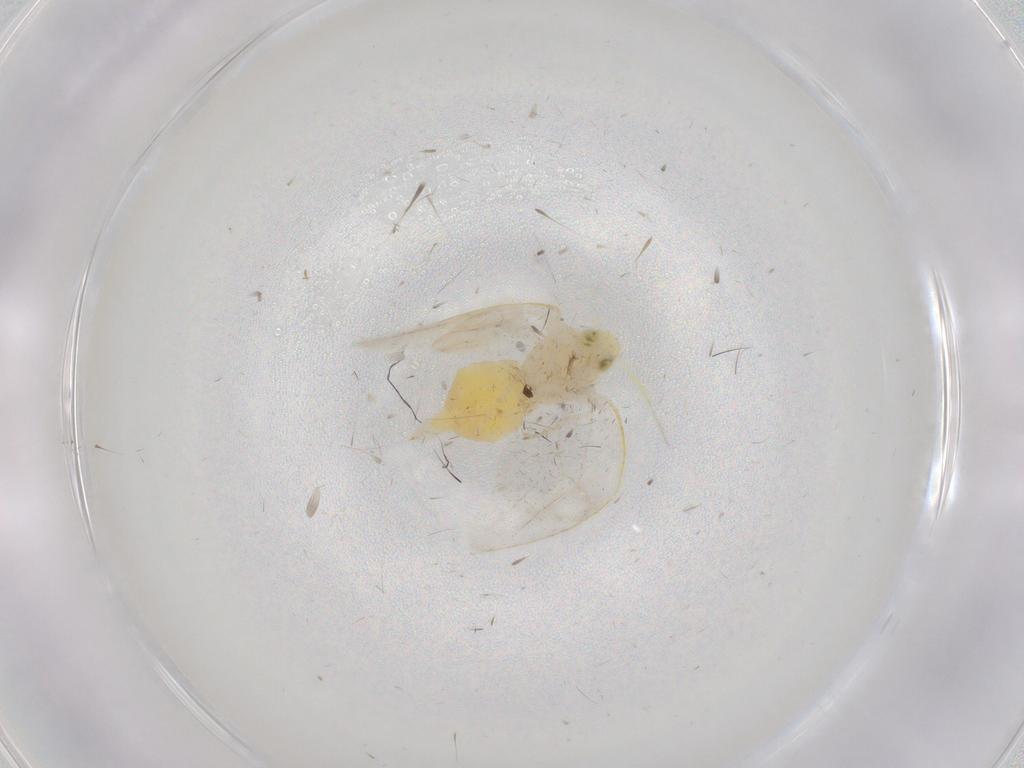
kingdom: Animalia
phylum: Arthropoda
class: Insecta
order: Hemiptera
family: Aleyrodidae
